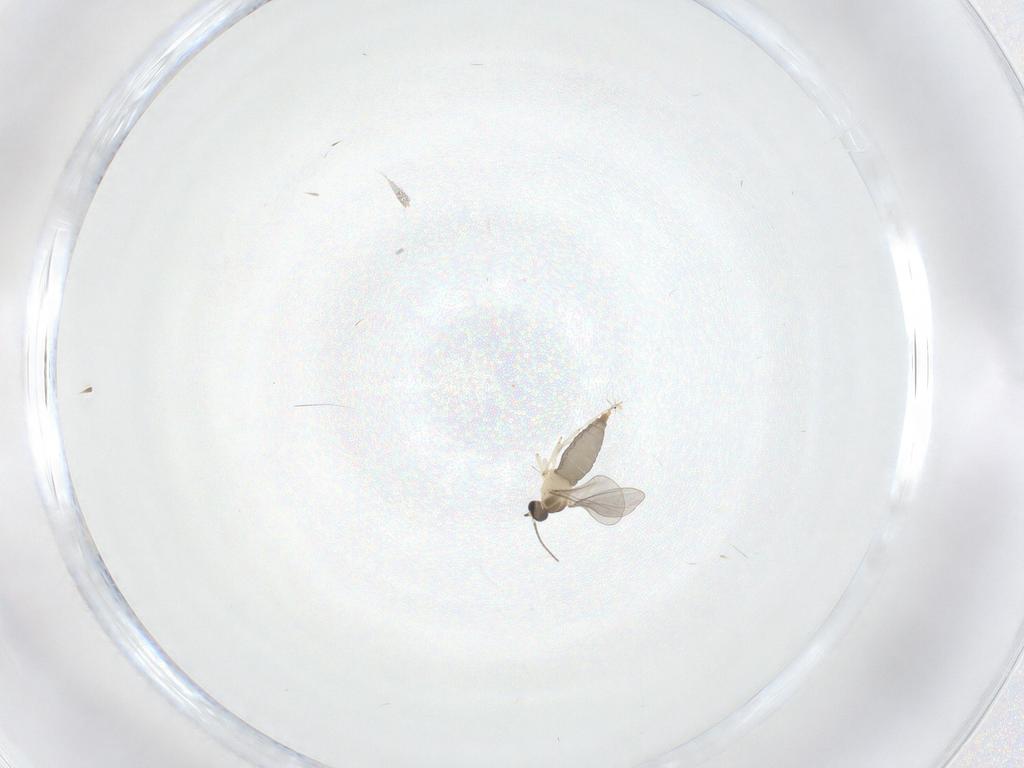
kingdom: Animalia
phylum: Arthropoda
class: Insecta
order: Diptera
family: Sciaridae
